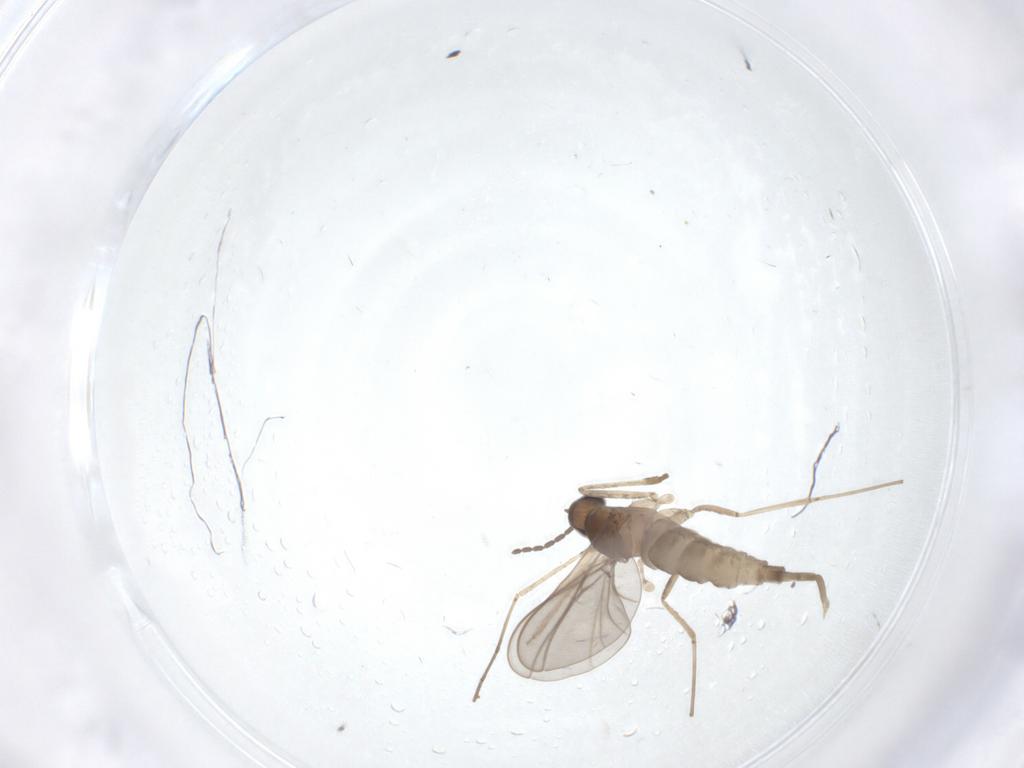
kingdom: Animalia
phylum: Arthropoda
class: Insecta
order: Diptera
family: Cecidomyiidae
